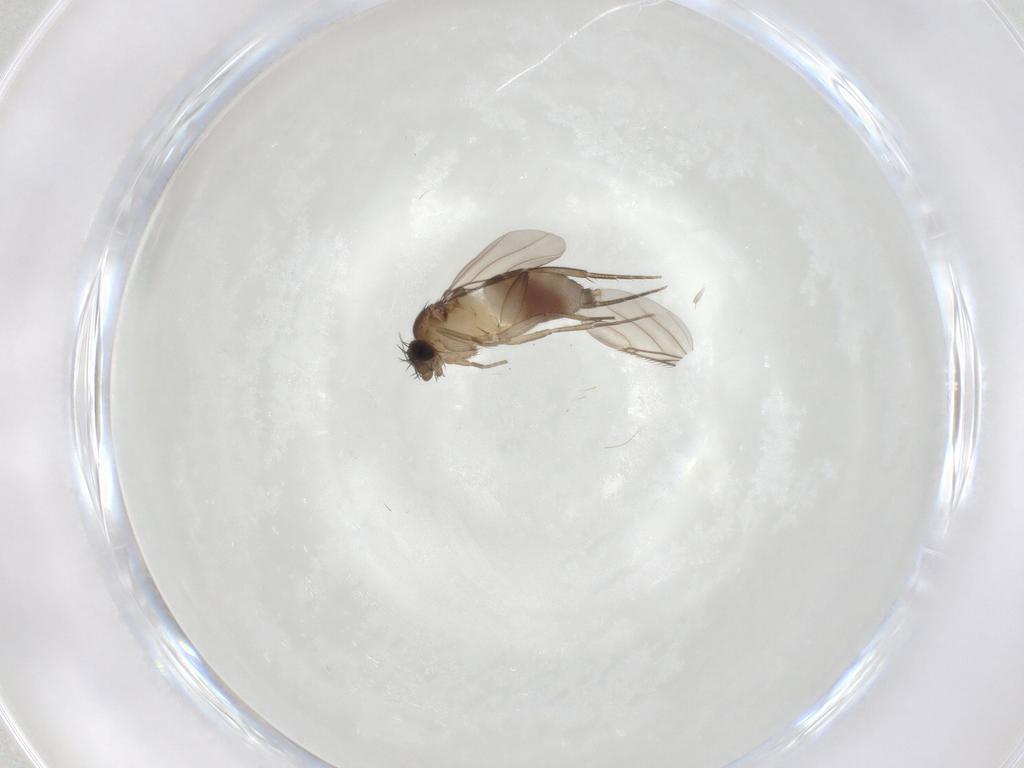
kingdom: Animalia
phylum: Arthropoda
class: Insecta
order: Diptera
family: Phoridae
